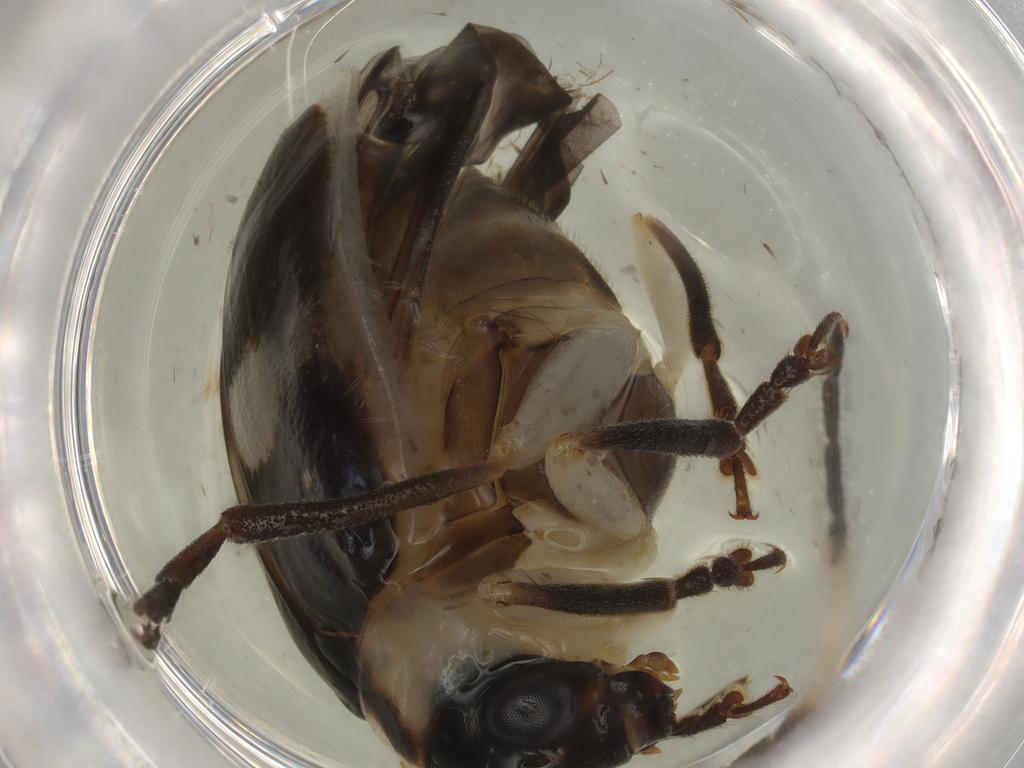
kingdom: Animalia
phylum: Arthropoda
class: Insecta
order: Coleoptera
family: Chrysomelidae
